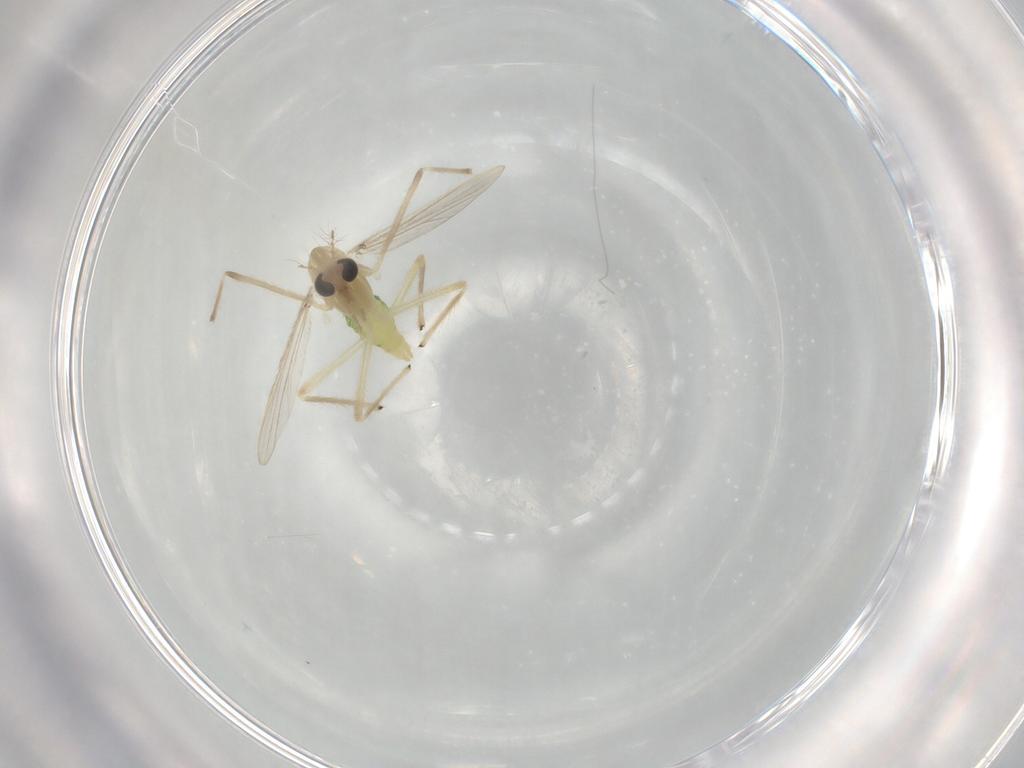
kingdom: Animalia
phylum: Arthropoda
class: Insecta
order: Diptera
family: Chironomidae
